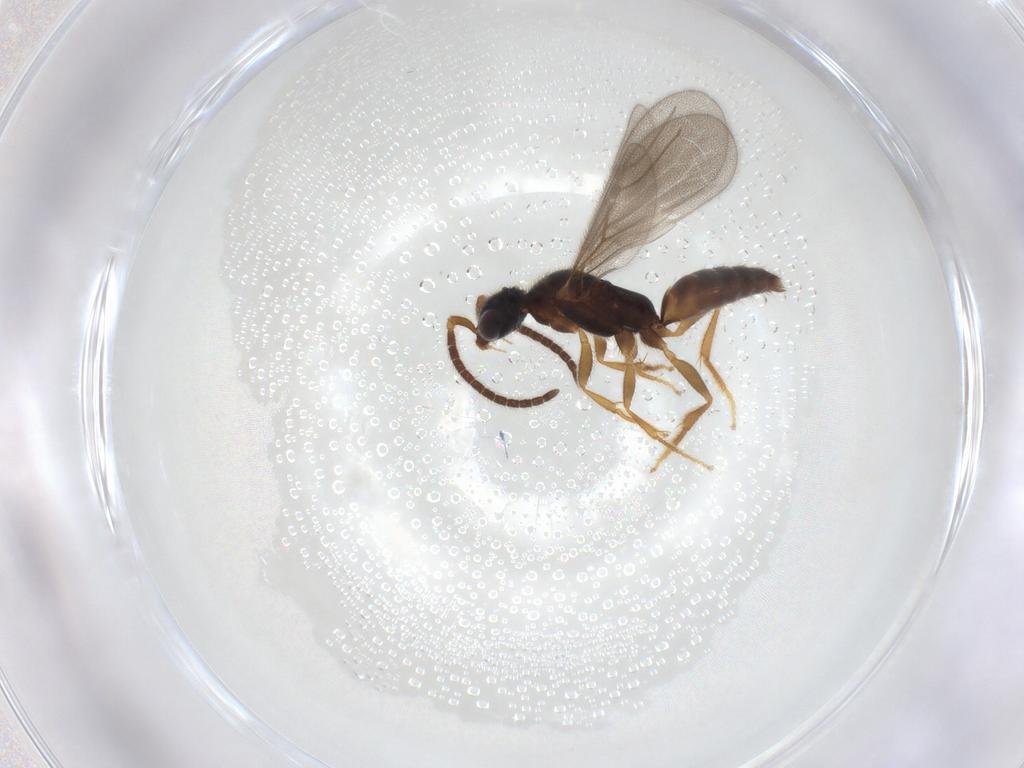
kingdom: Animalia
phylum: Arthropoda
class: Insecta
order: Hymenoptera
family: Bethylidae
